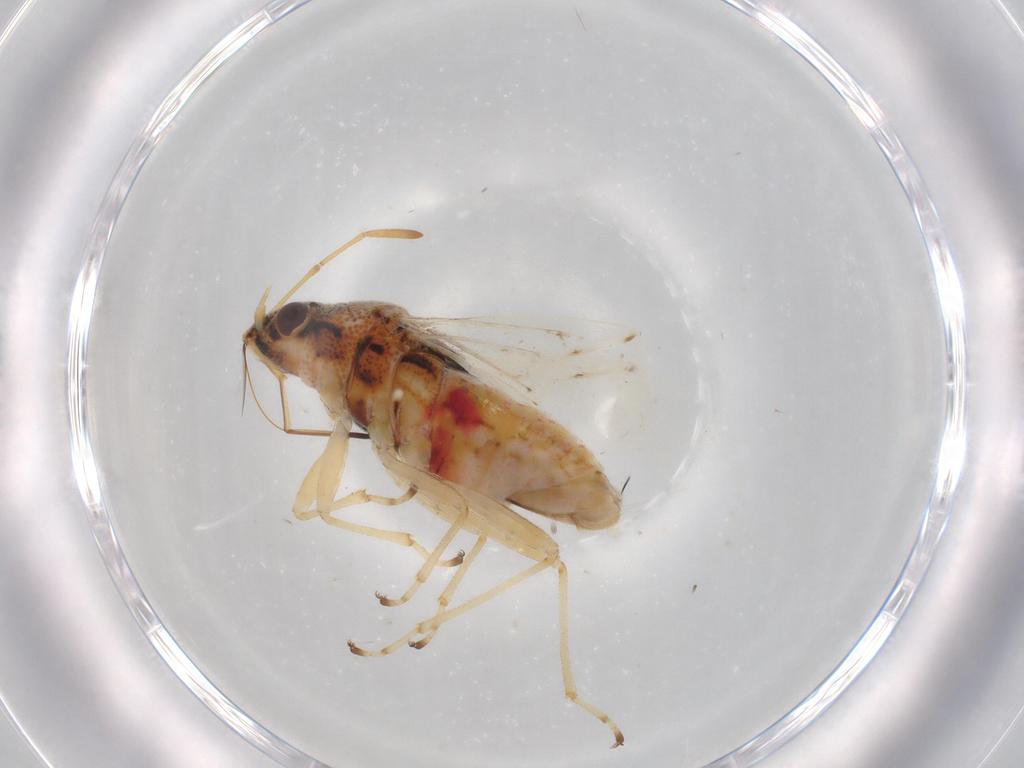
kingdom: Animalia
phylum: Arthropoda
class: Insecta
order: Hemiptera
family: Lygaeidae
